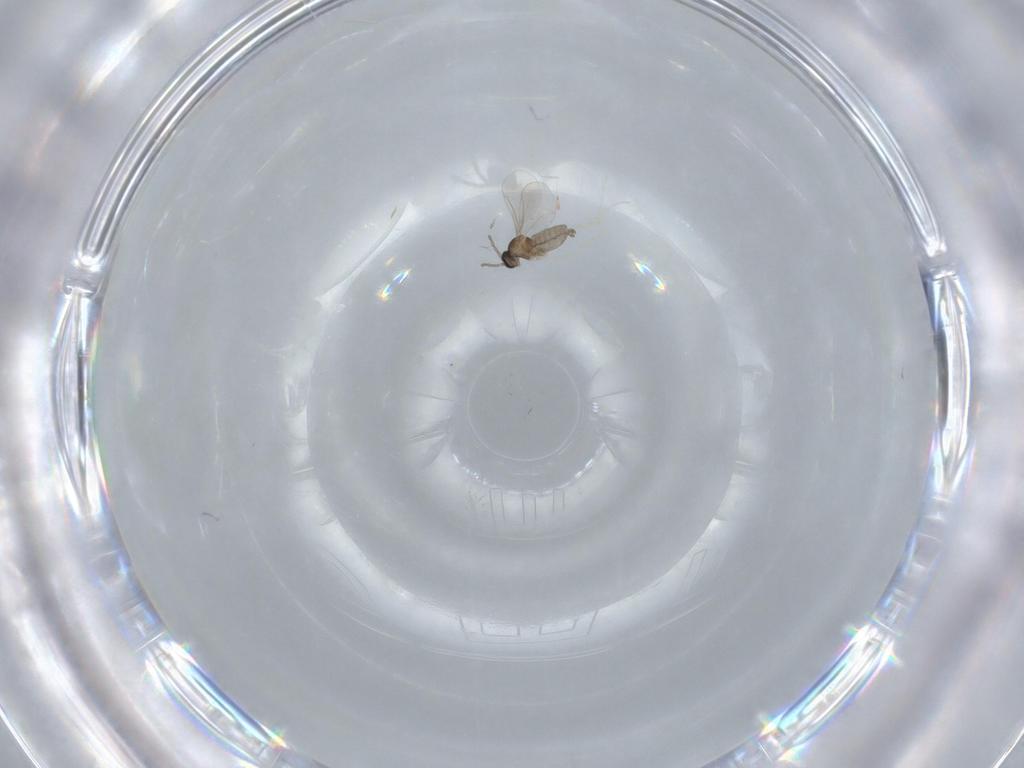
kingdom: Animalia
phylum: Arthropoda
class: Insecta
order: Diptera
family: Cecidomyiidae
